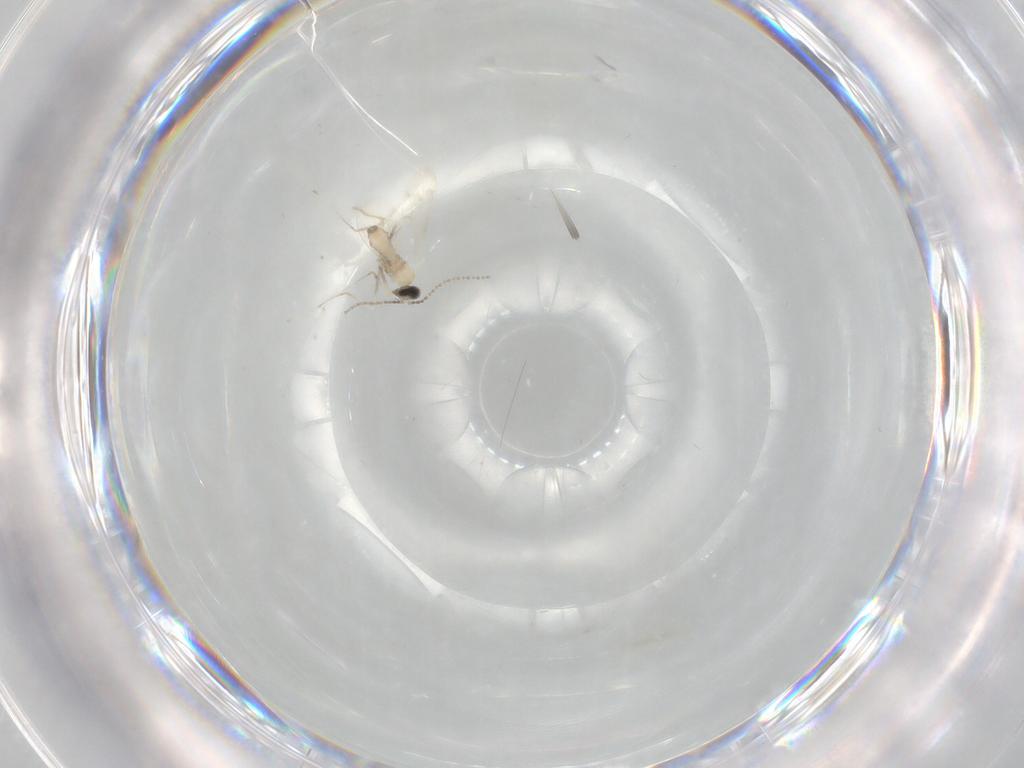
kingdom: Animalia
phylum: Arthropoda
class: Insecta
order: Diptera
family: Cecidomyiidae
